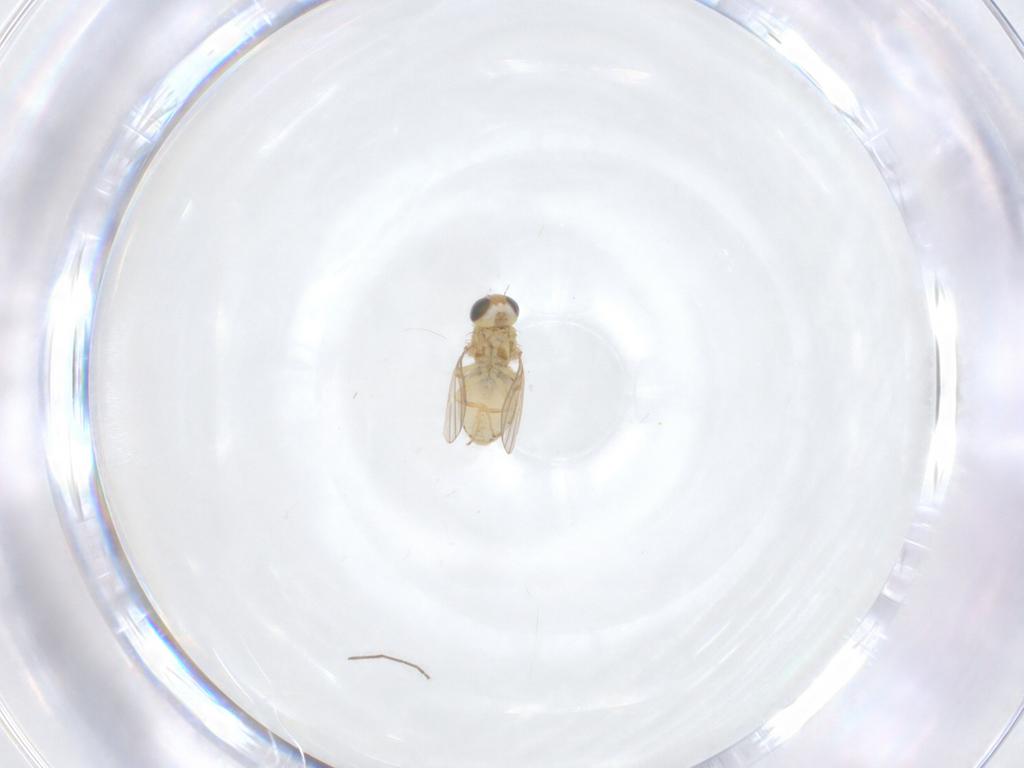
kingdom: Animalia
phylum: Arthropoda
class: Insecta
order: Diptera
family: Chyromyidae
